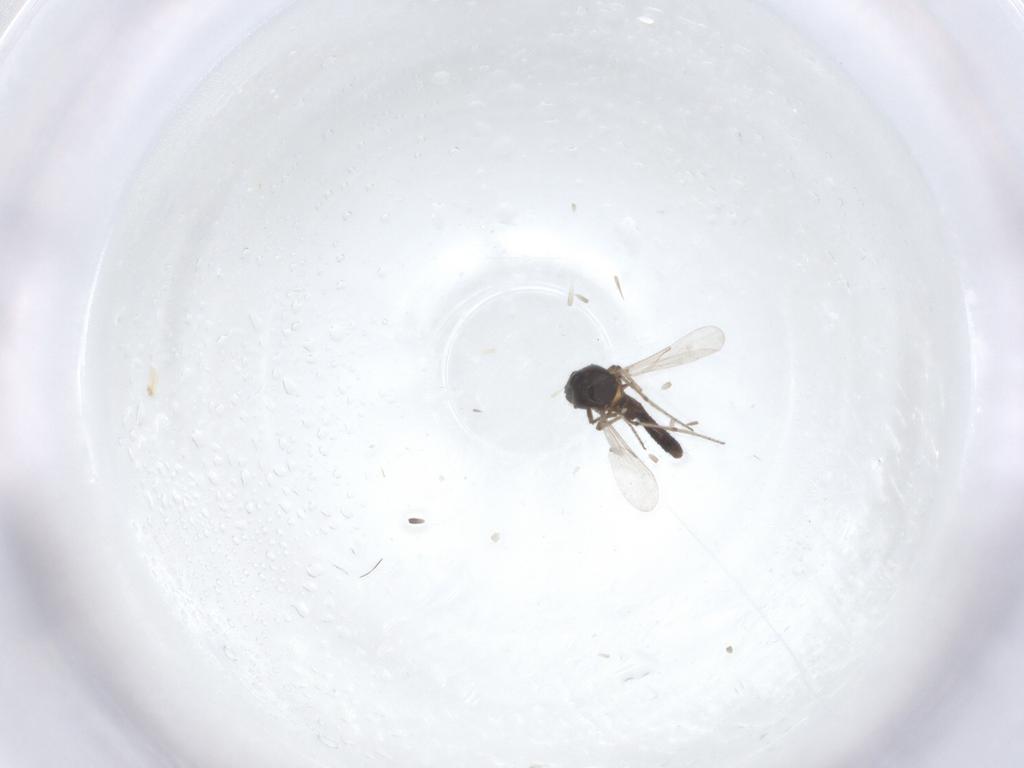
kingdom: Animalia
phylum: Arthropoda
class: Insecta
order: Diptera
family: Ceratopogonidae
